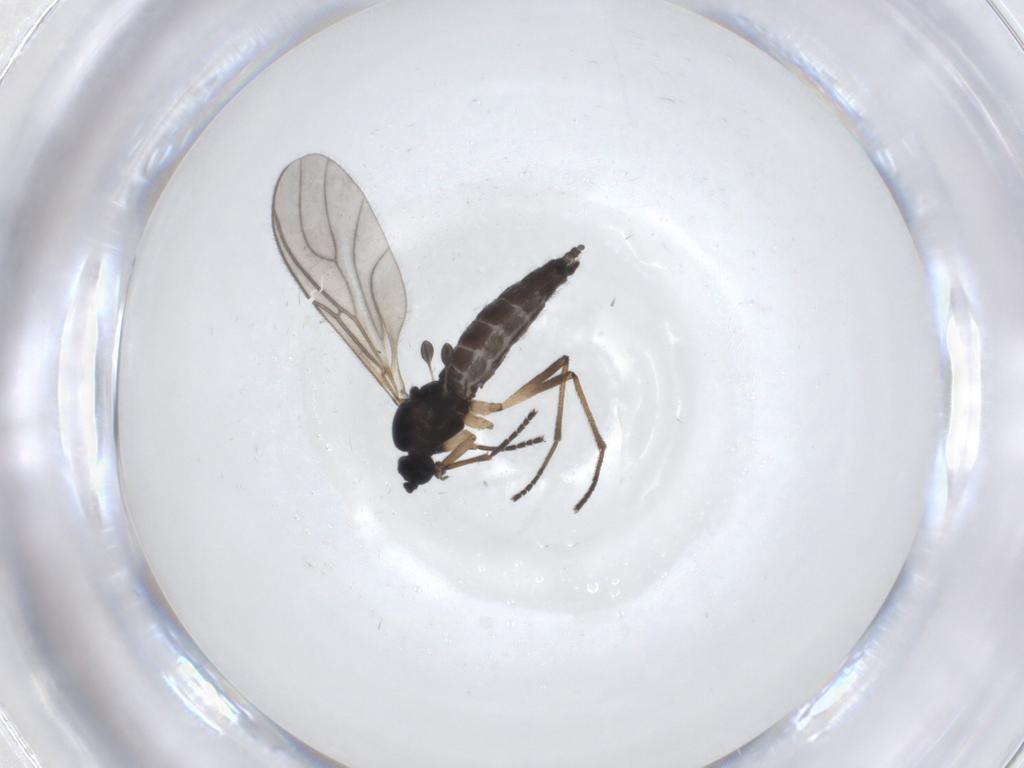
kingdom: Animalia
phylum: Arthropoda
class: Insecta
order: Diptera
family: Sciaridae
